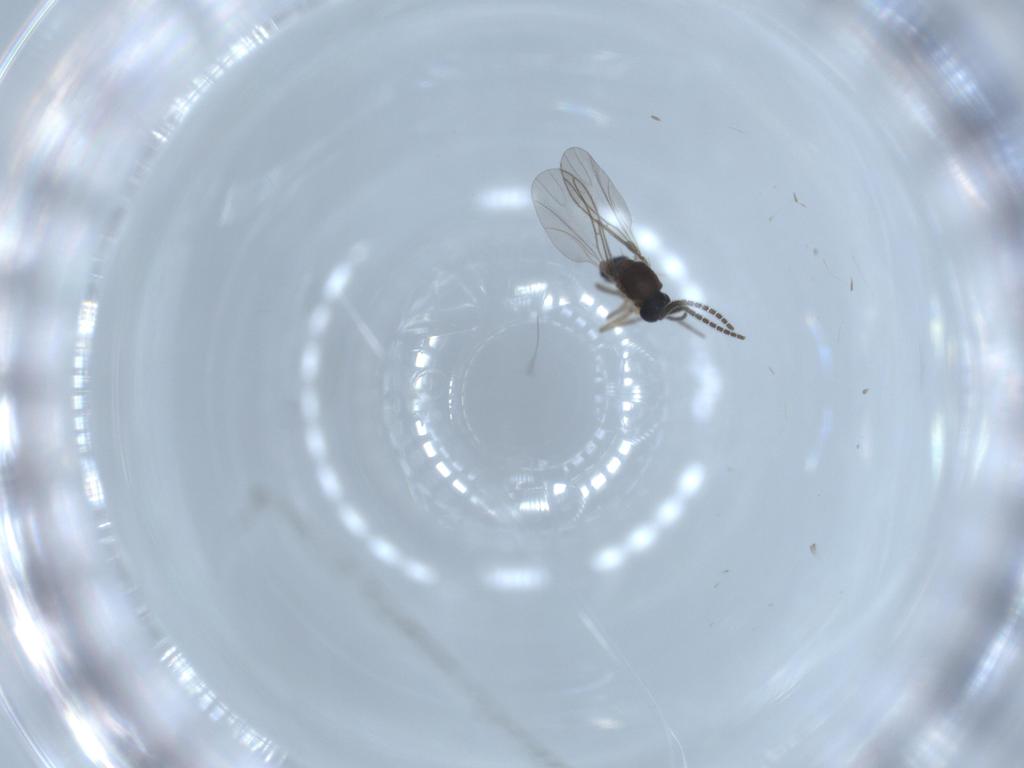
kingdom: Animalia
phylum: Arthropoda
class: Insecta
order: Diptera
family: Sciaridae
